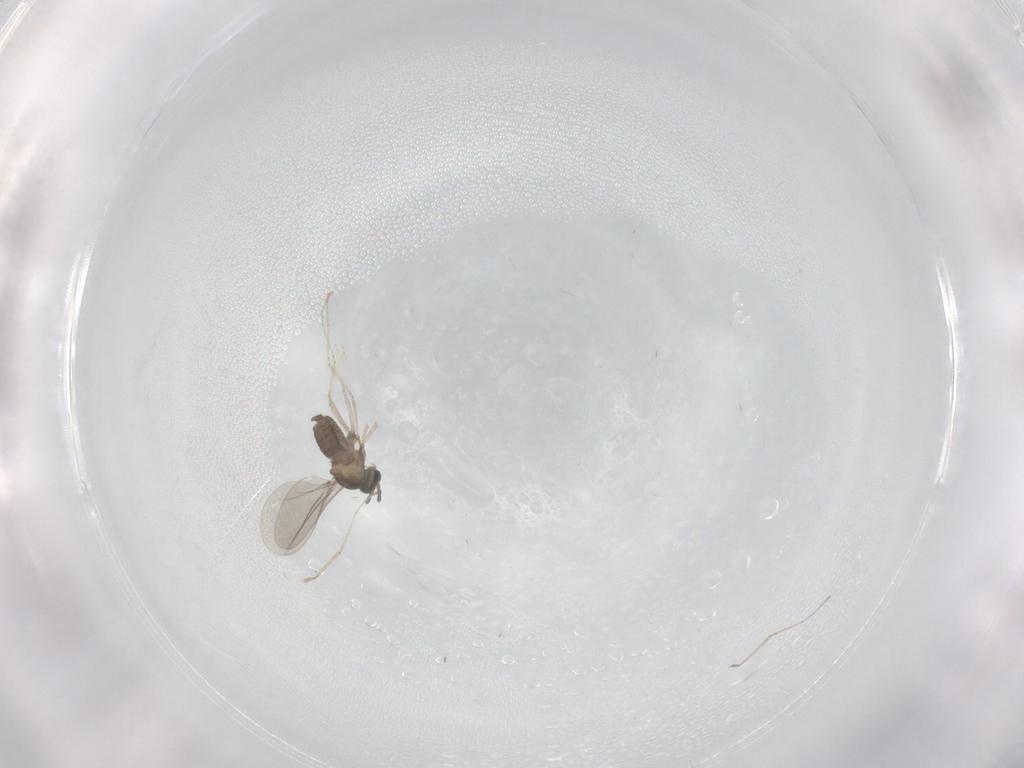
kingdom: Animalia
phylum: Arthropoda
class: Insecta
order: Diptera
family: Cecidomyiidae
